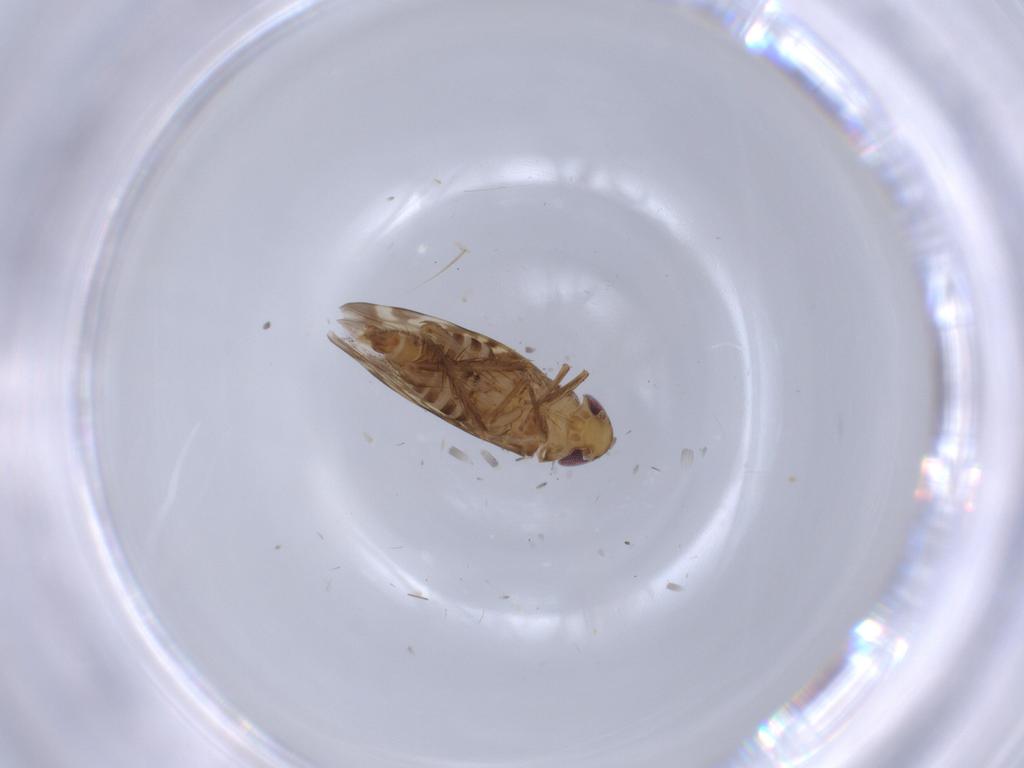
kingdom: Animalia
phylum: Arthropoda
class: Insecta
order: Hemiptera
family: Cicadellidae
